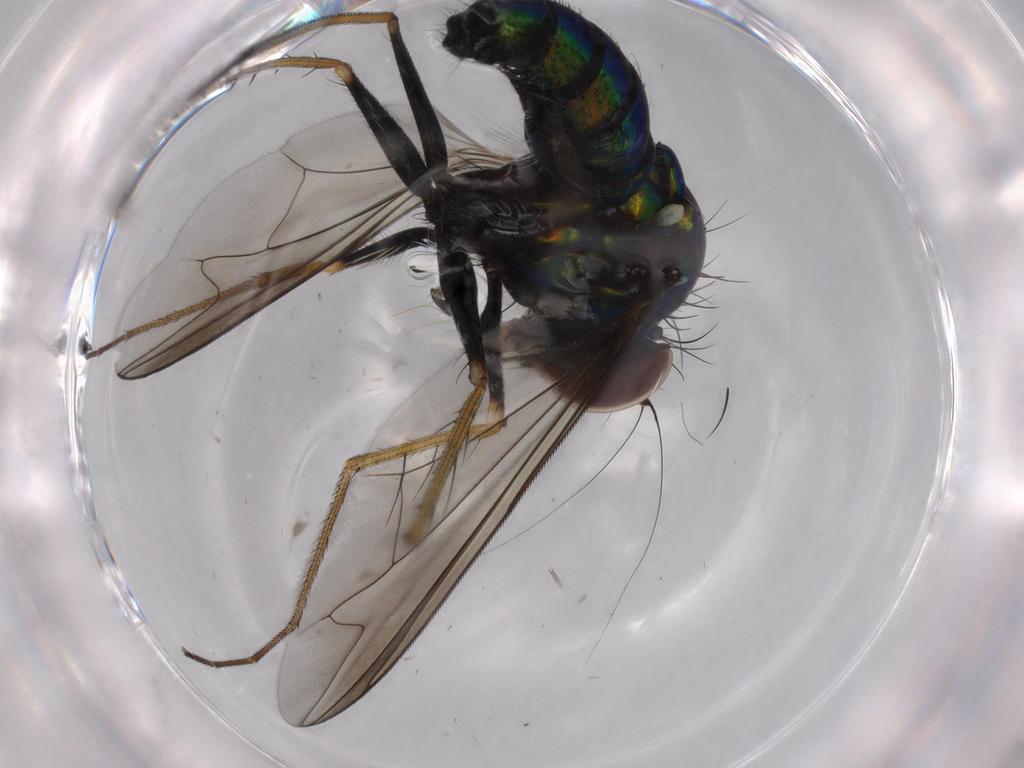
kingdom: Animalia
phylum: Arthropoda
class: Insecta
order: Diptera
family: Dolichopodidae
